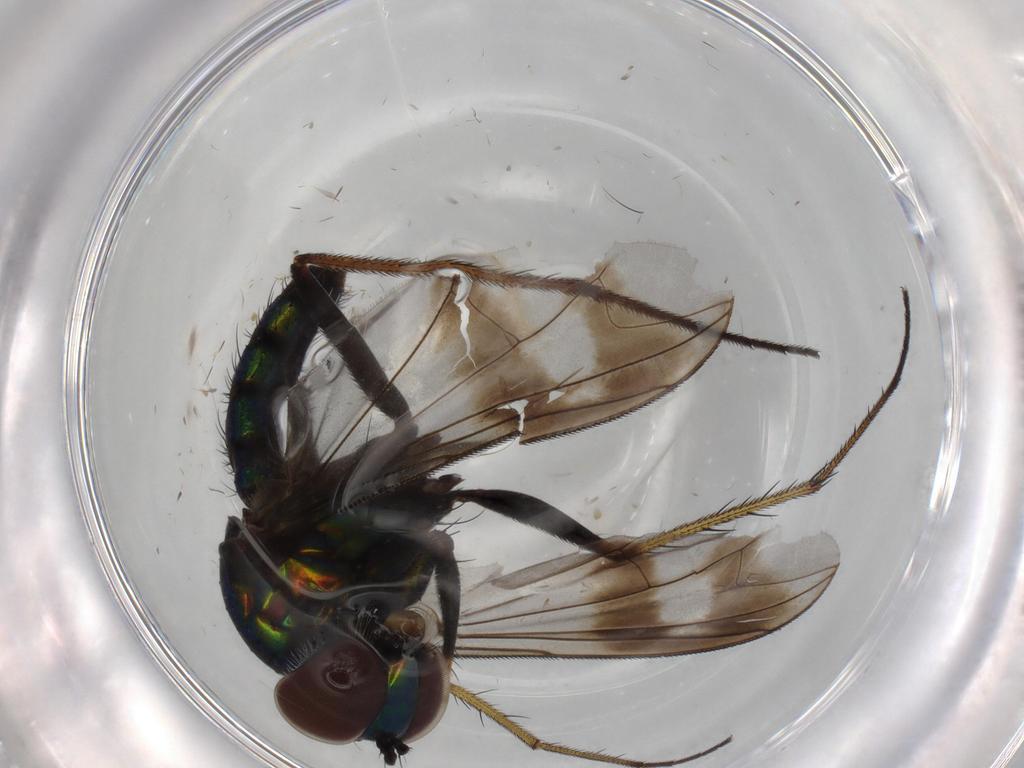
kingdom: Animalia
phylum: Arthropoda
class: Insecta
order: Diptera
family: Dolichopodidae
